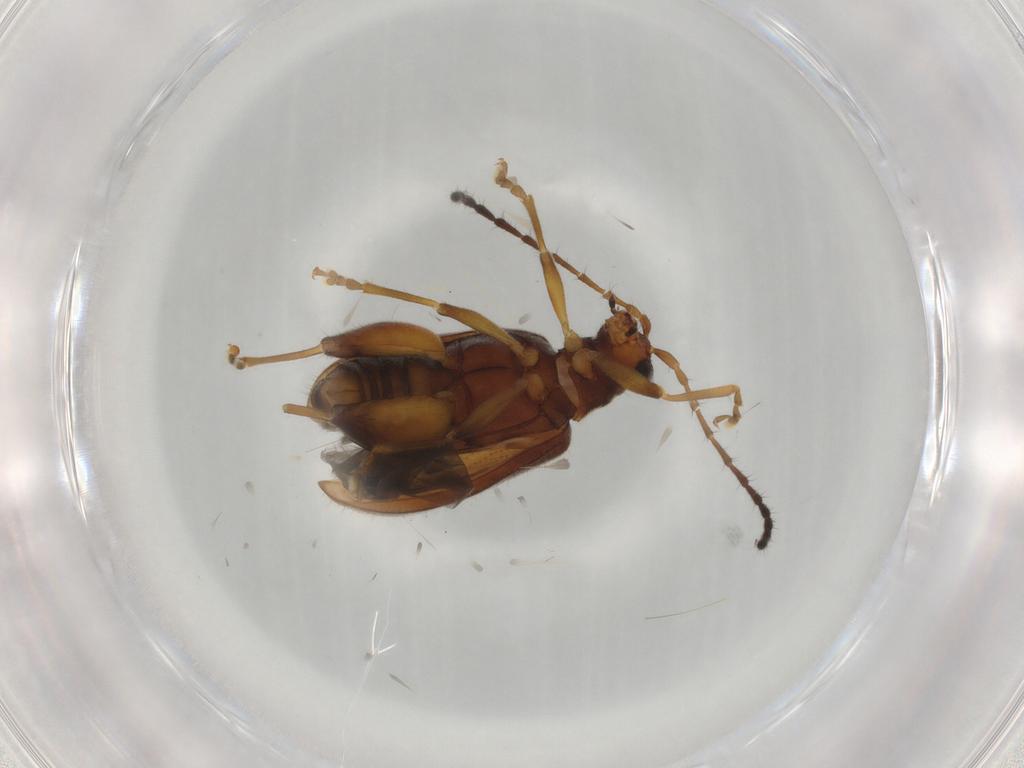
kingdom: Animalia
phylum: Arthropoda
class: Insecta
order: Coleoptera
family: Chrysomelidae
